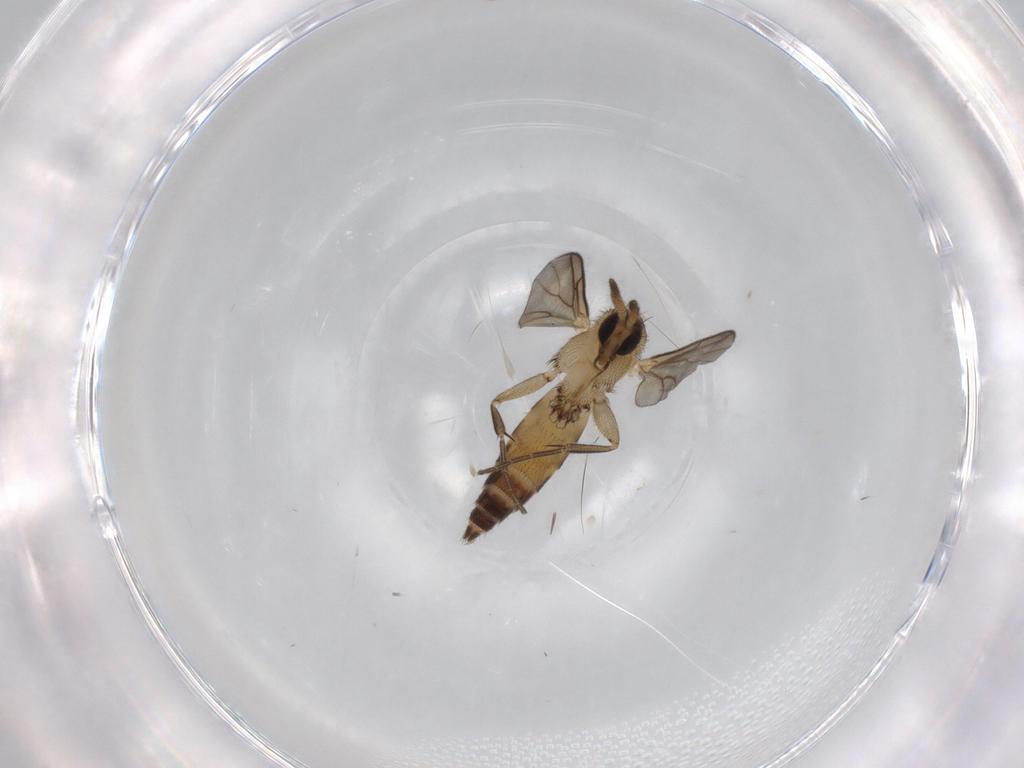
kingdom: Animalia
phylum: Arthropoda
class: Insecta
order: Diptera
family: Mycetophilidae
